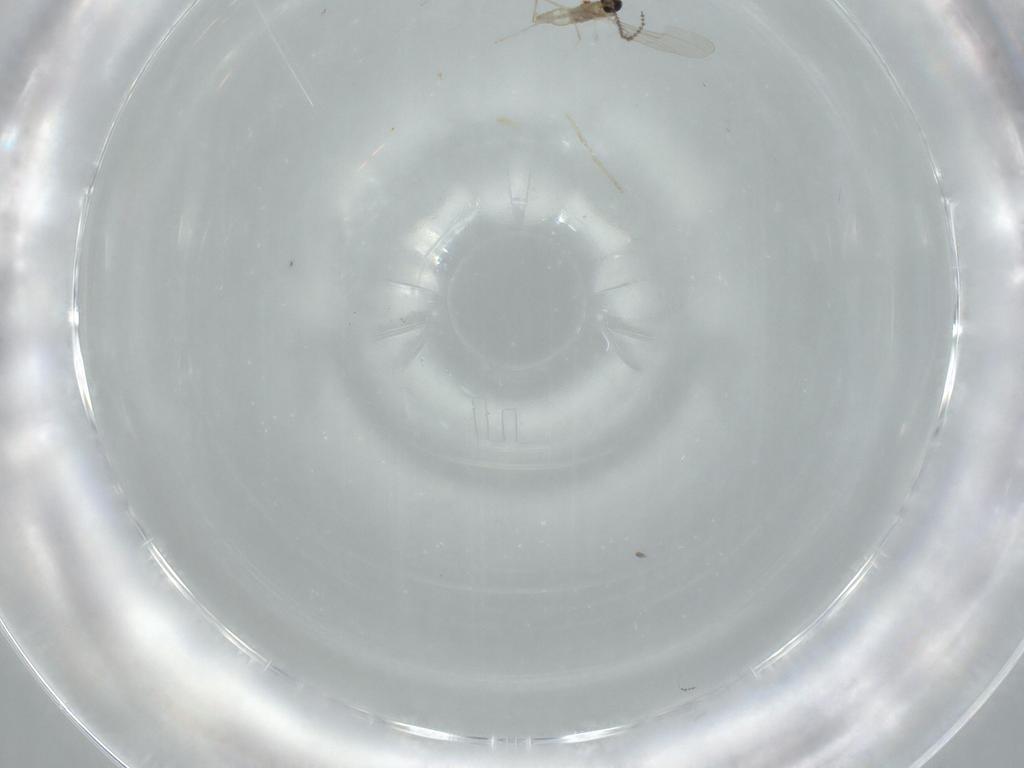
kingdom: Animalia
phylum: Arthropoda
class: Insecta
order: Diptera
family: Cecidomyiidae
